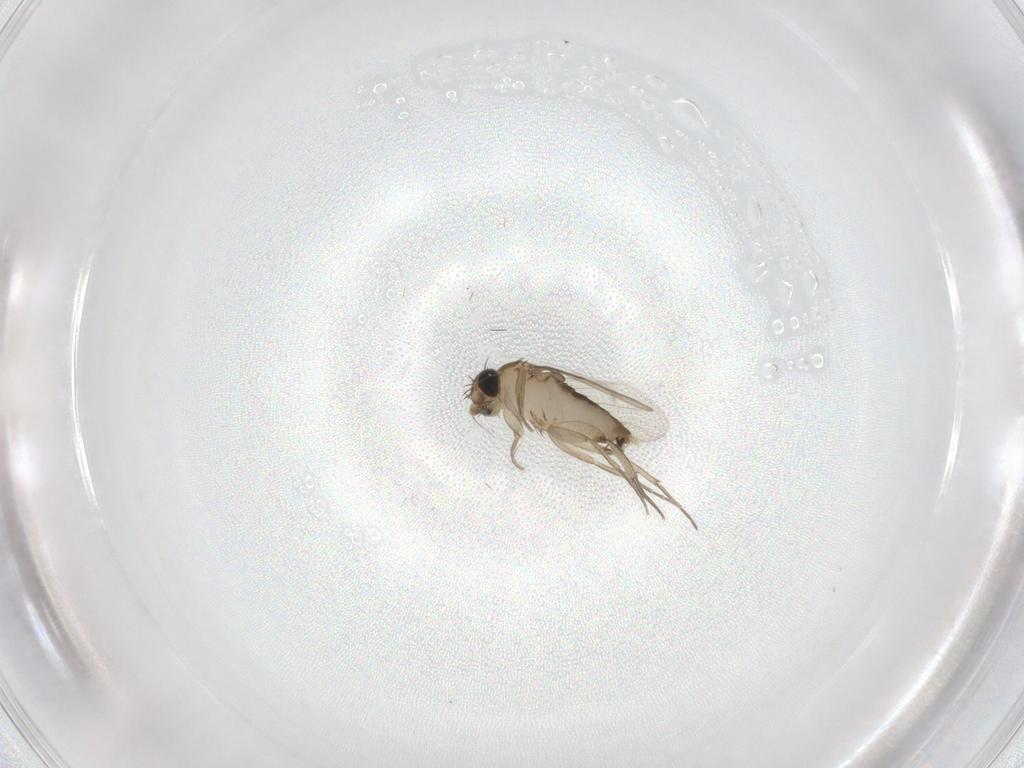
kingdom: Animalia
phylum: Arthropoda
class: Insecta
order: Diptera
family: Phoridae
